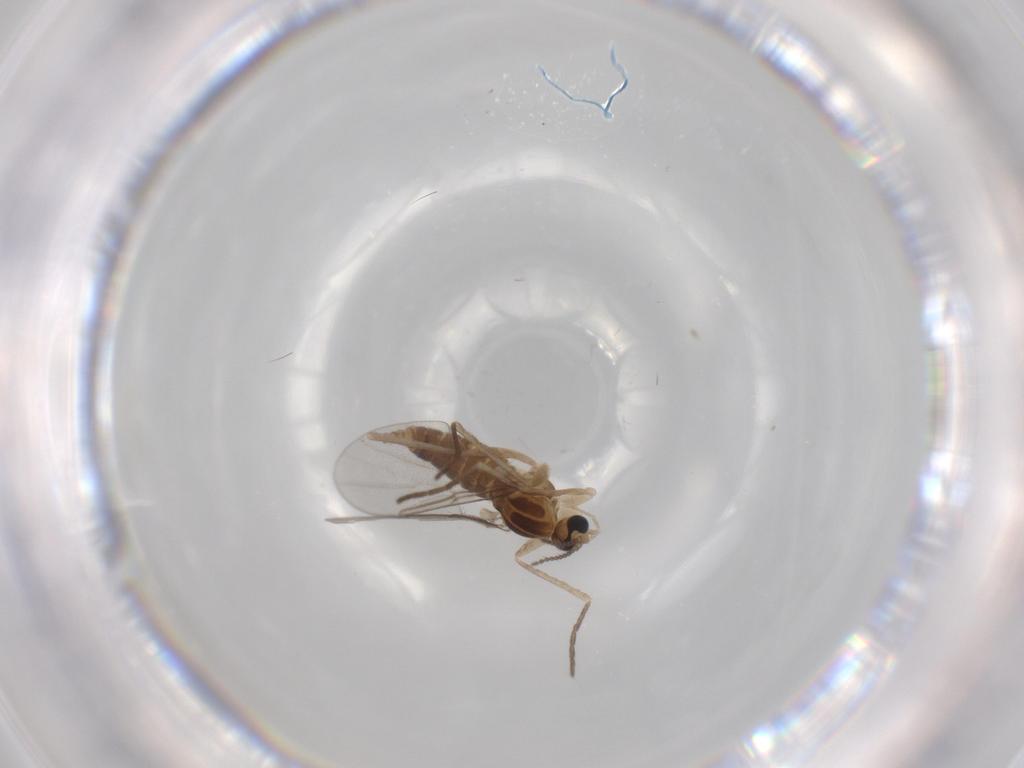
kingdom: Animalia
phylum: Arthropoda
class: Insecta
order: Diptera
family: Cecidomyiidae
